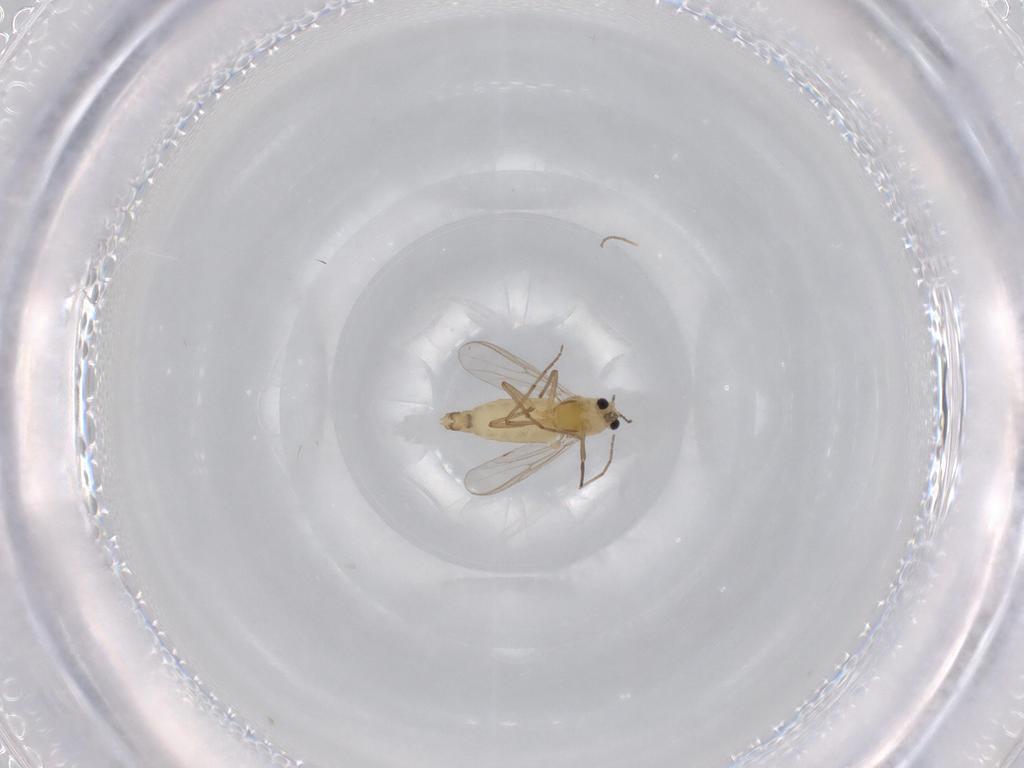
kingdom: Animalia
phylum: Arthropoda
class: Insecta
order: Diptera
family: Chironomidae
